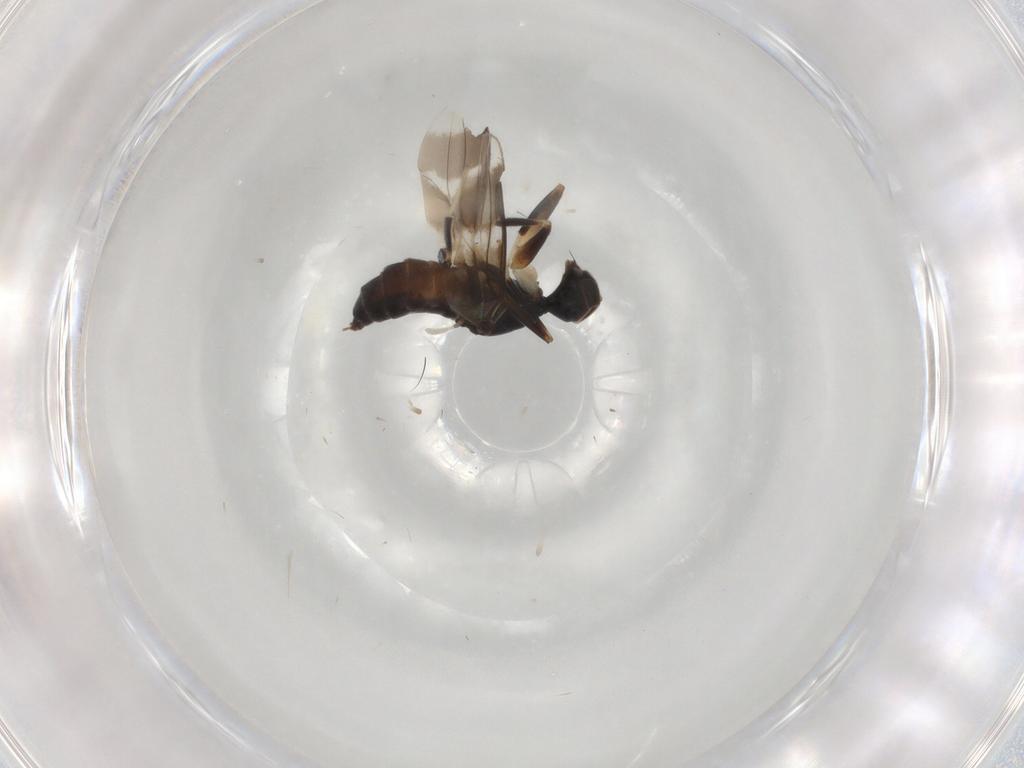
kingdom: Animalia
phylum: Arthropoda
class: Insecta
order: Diptera
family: Hybotidae
